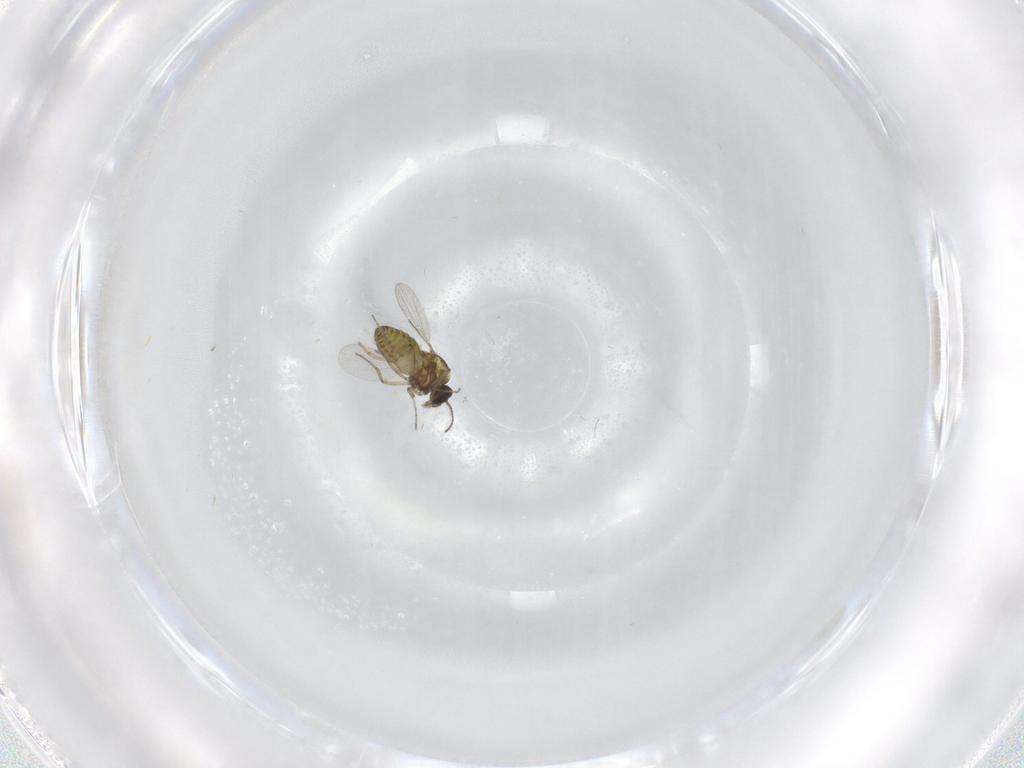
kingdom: Animalia
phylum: Arthropoda
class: Insecta
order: Diptera
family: Ceratopogonidae
